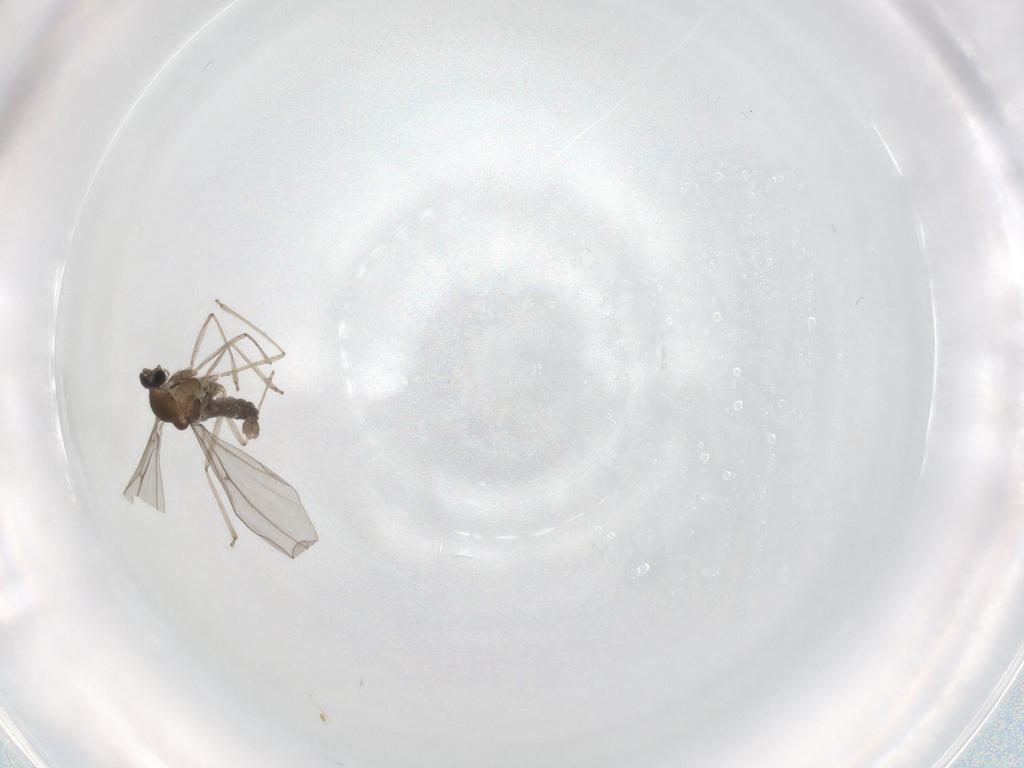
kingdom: Animalia
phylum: Arthropoda
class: Insecta
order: Diptera
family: Cecidomyiidae
